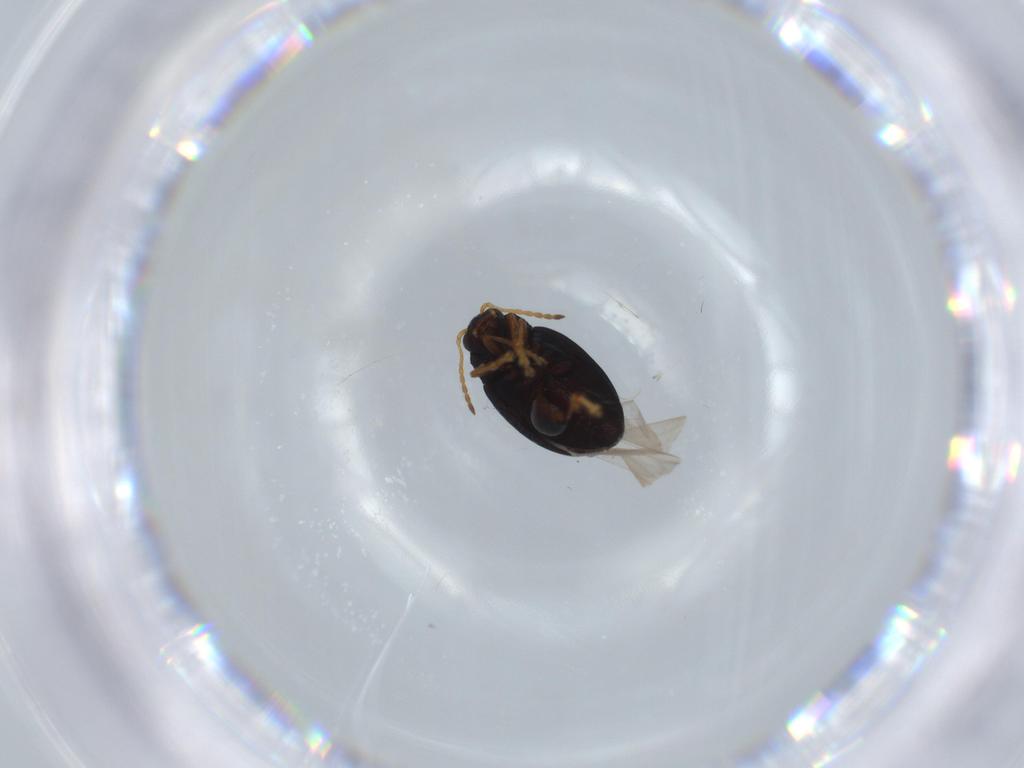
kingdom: Animalia
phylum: Arthropoda
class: Insecta
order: Coleoptera
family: Chrysomelidae
